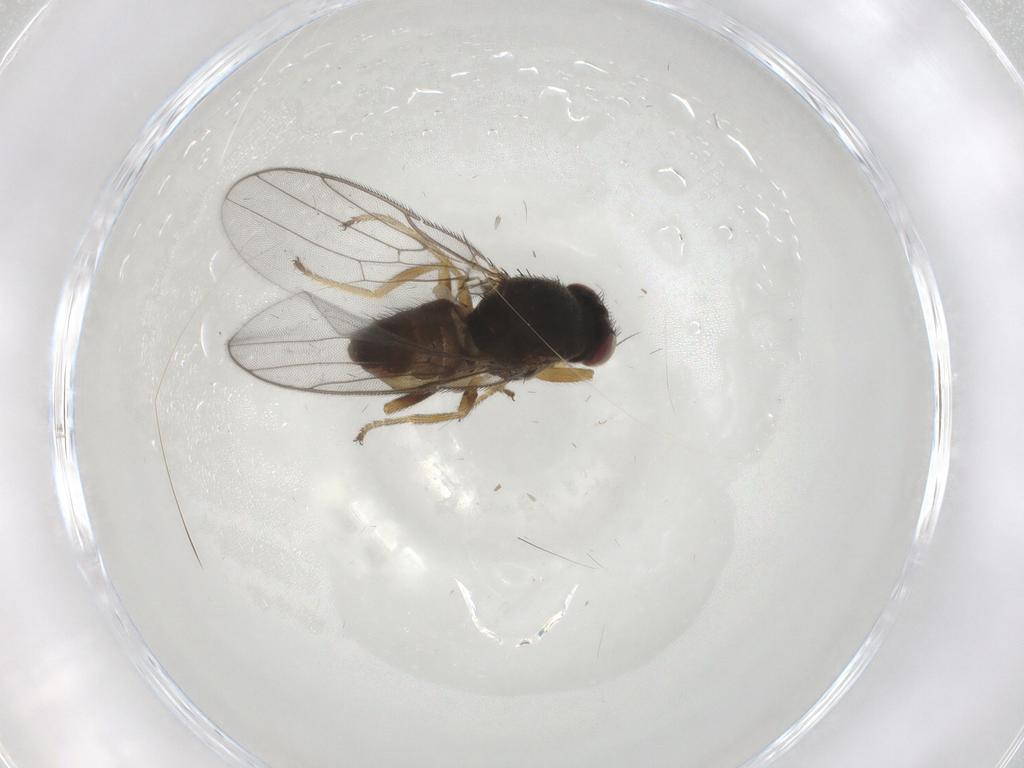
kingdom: Animalia
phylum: Arthropoda
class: Insecta
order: Diptera
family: Chloropidae
